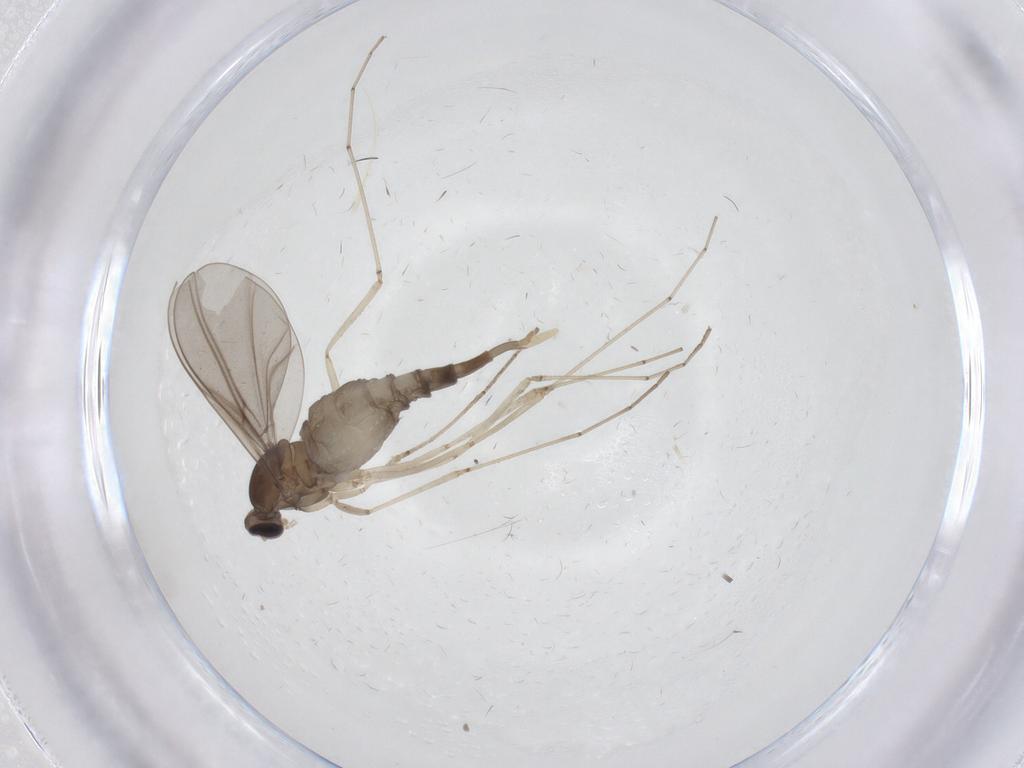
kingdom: Animalia
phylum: Arthropoda
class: Insecta
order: Diptera
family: Cecidomyiidae
